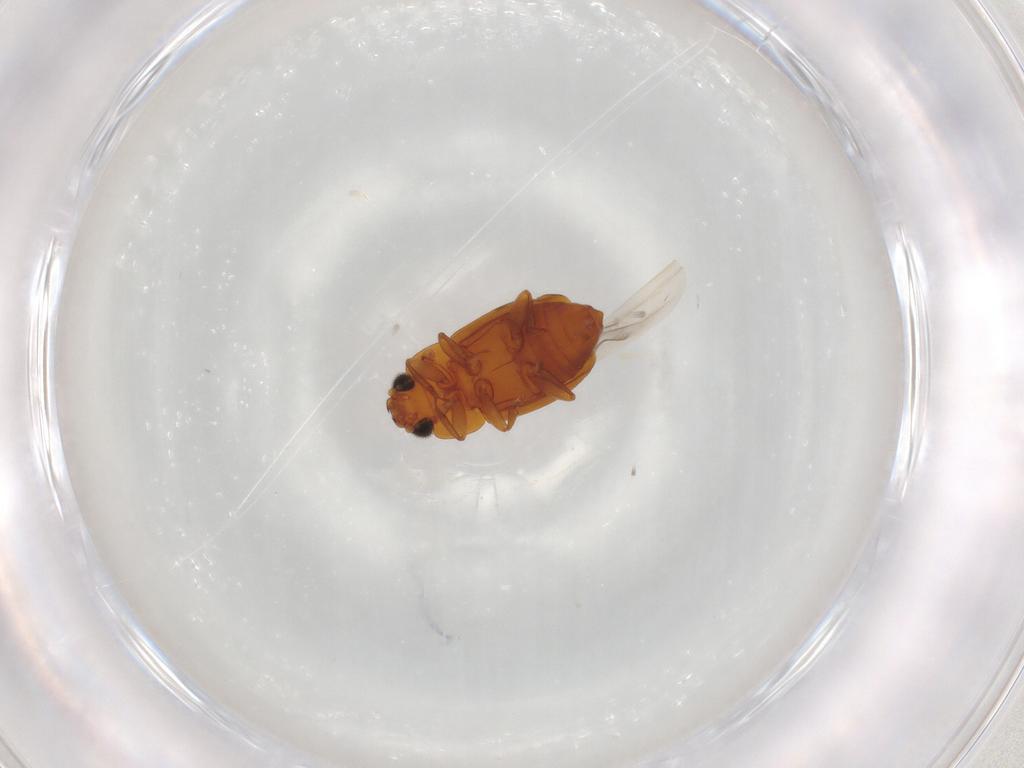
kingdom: Animalia
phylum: Arthropoda
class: Insecta
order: Coleoptera
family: Nitidulidae
